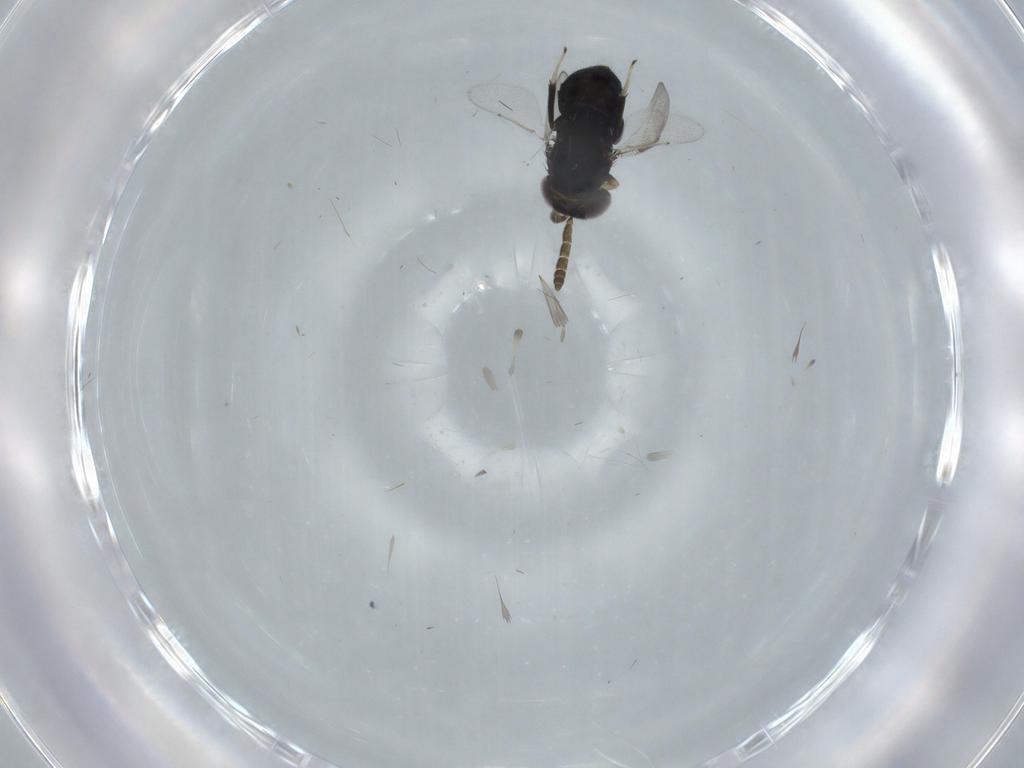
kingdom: Animalia
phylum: Arthropoda
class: Insecta
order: Hymenoptera
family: Aphelinidae
